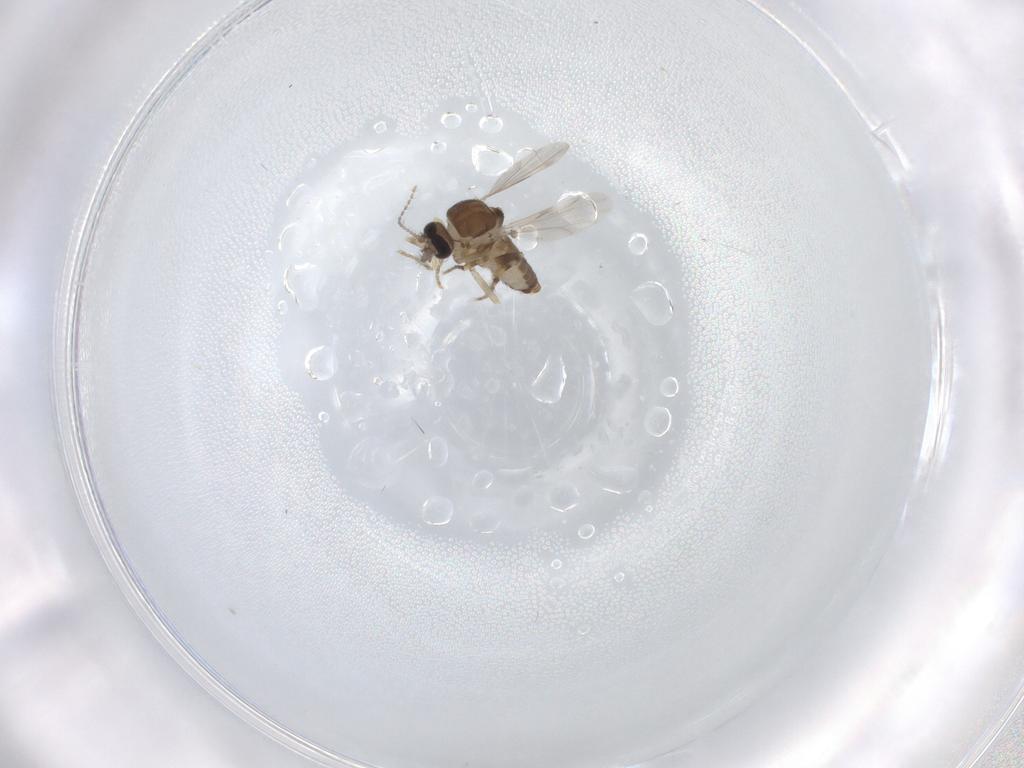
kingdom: Animalia
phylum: Arthropoda
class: Insecta
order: Diptera
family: Ceratopogonidae
